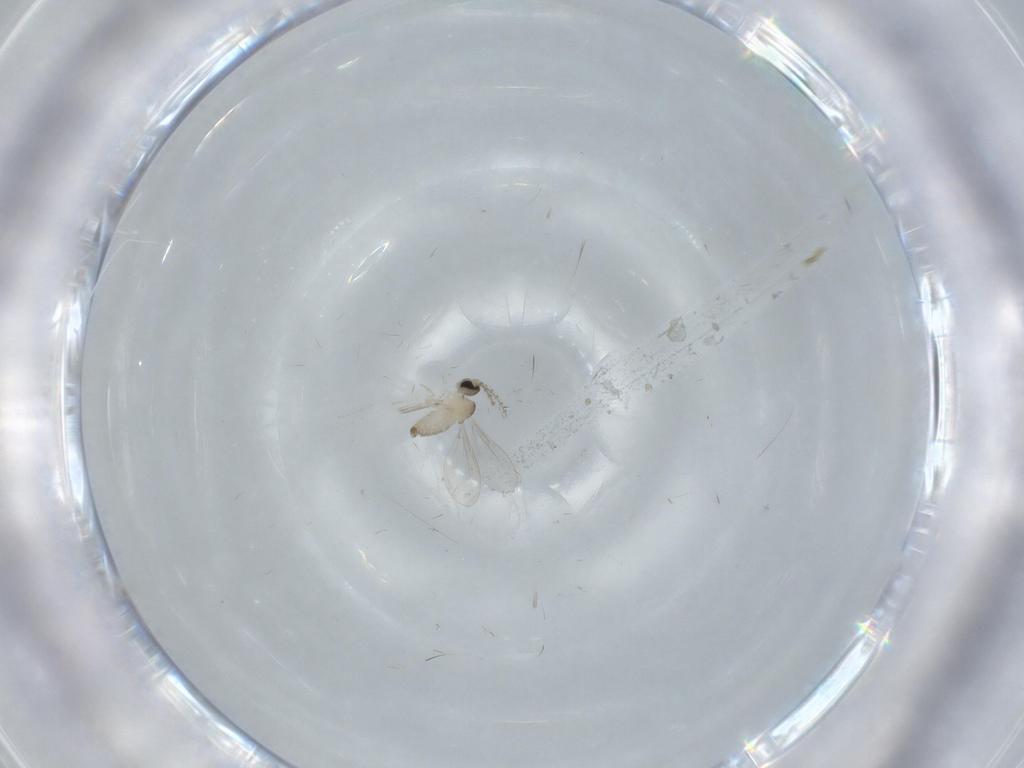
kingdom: Animalia
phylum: Arthropoda
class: Insecta
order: Diptera
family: Cecidomyiidae
